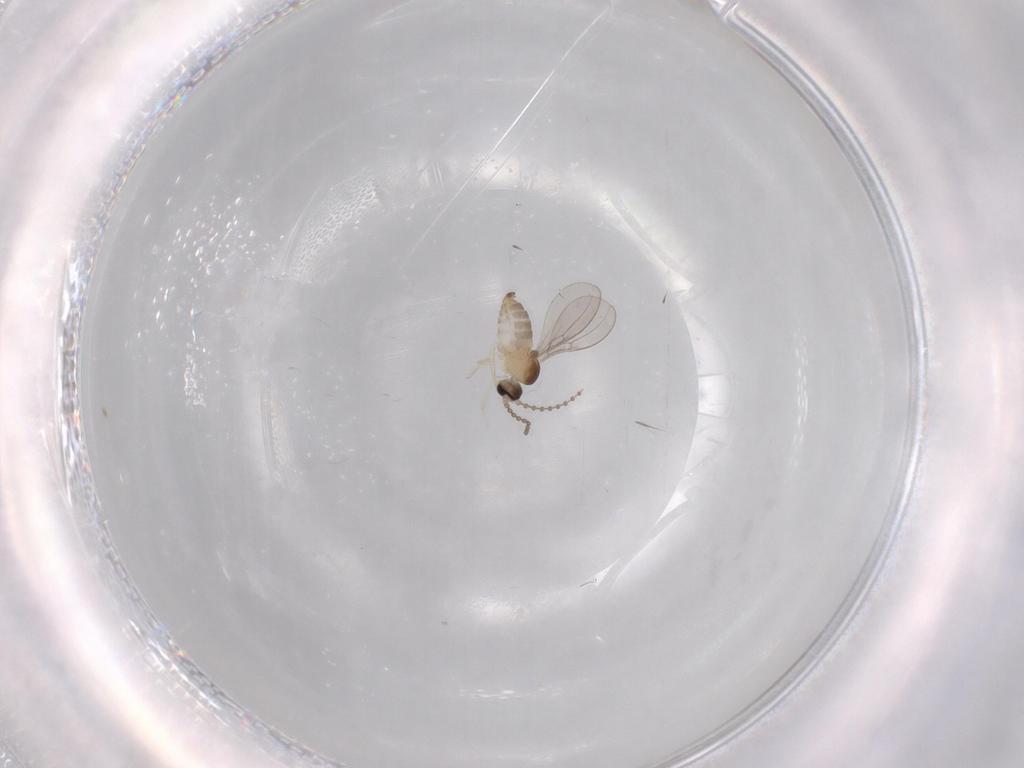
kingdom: Animalia
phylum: Arthropoda
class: Insecta
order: Diptera
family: Cecidomyiidae
